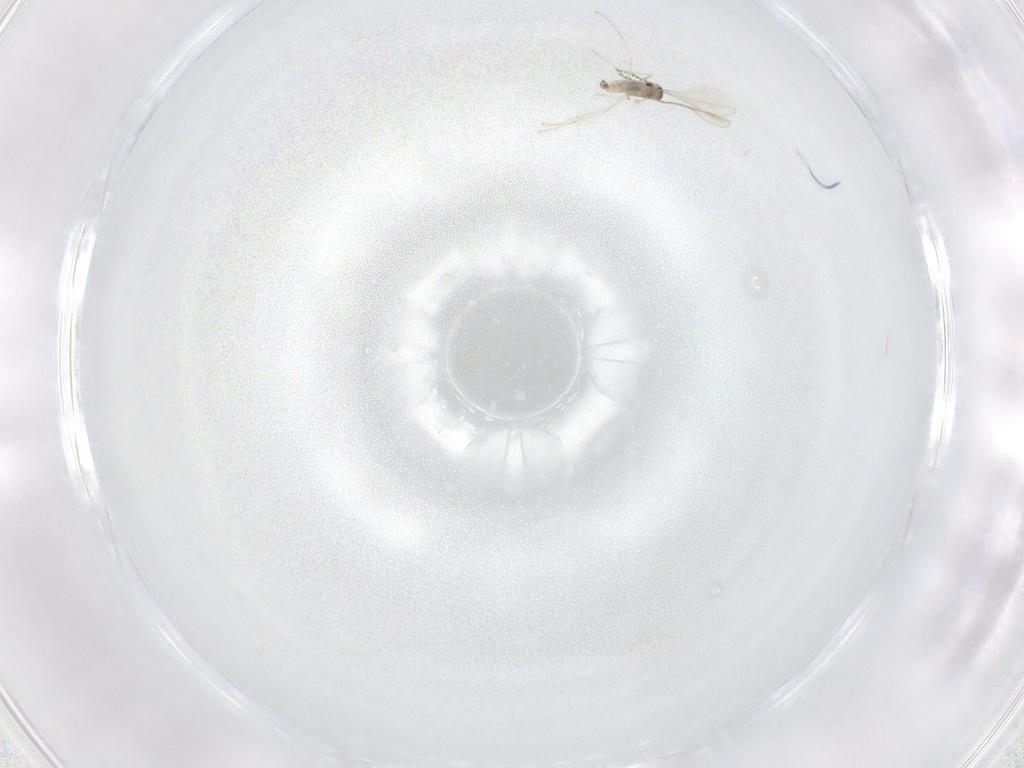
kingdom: Animalia
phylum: Arthropoda
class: Insecta
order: Diptera
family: Cecidomyiidae
